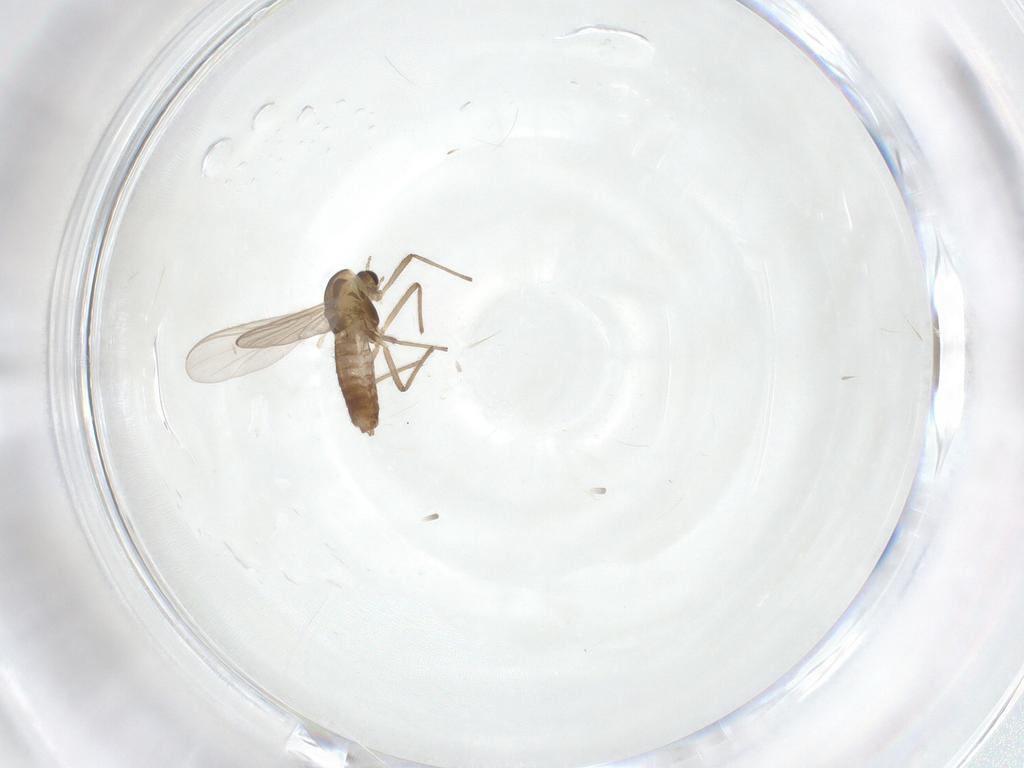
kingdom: Animalia
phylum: Arthropoda
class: Insecta
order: Diptera
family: Chironomidae
